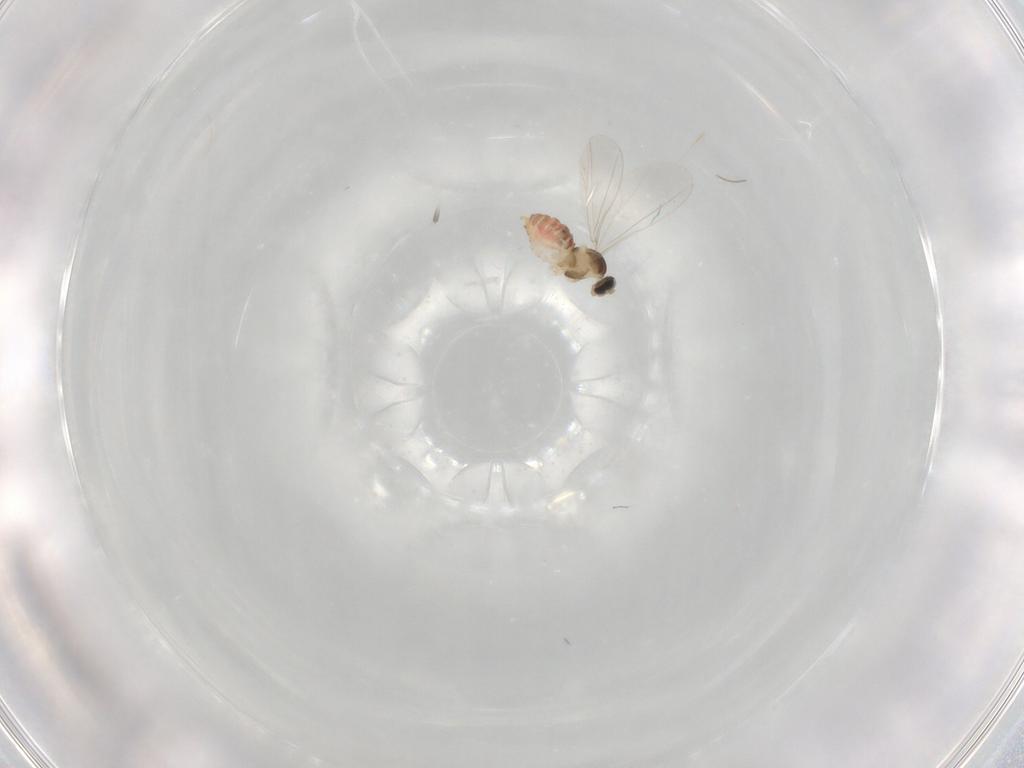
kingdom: Animalia
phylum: Arthropoda
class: Insecta
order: Diptera
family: Cecidomyiidae
